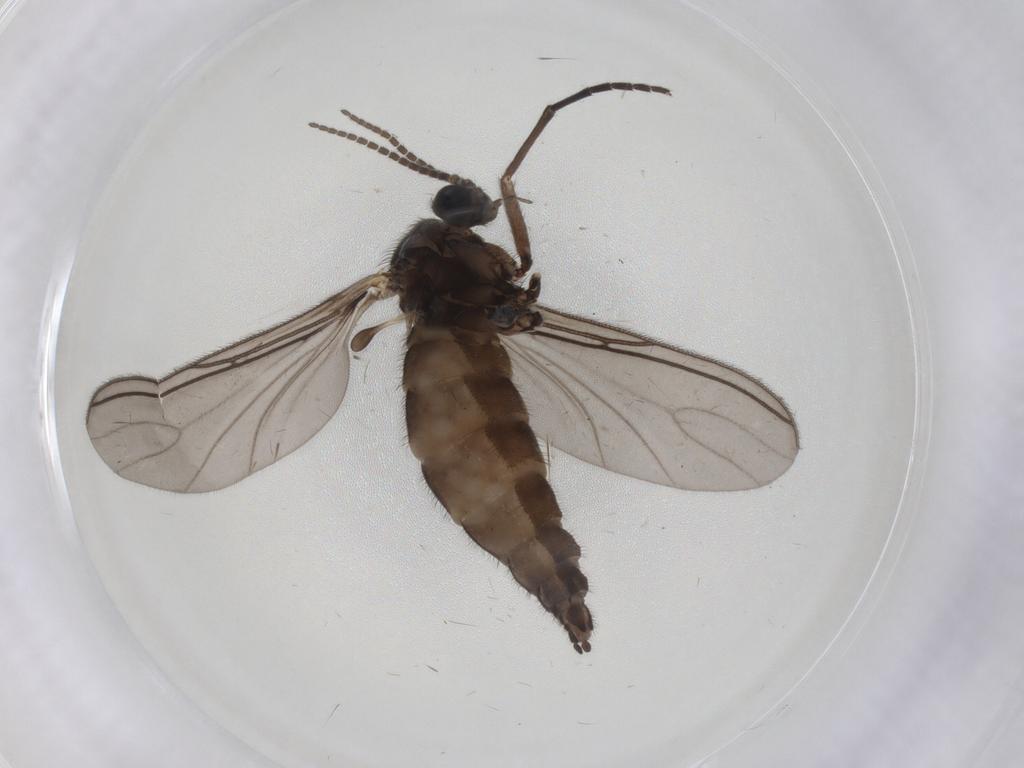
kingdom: Animalia
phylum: Arthropoda
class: Insecta
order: Diptera
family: Sciaridae
